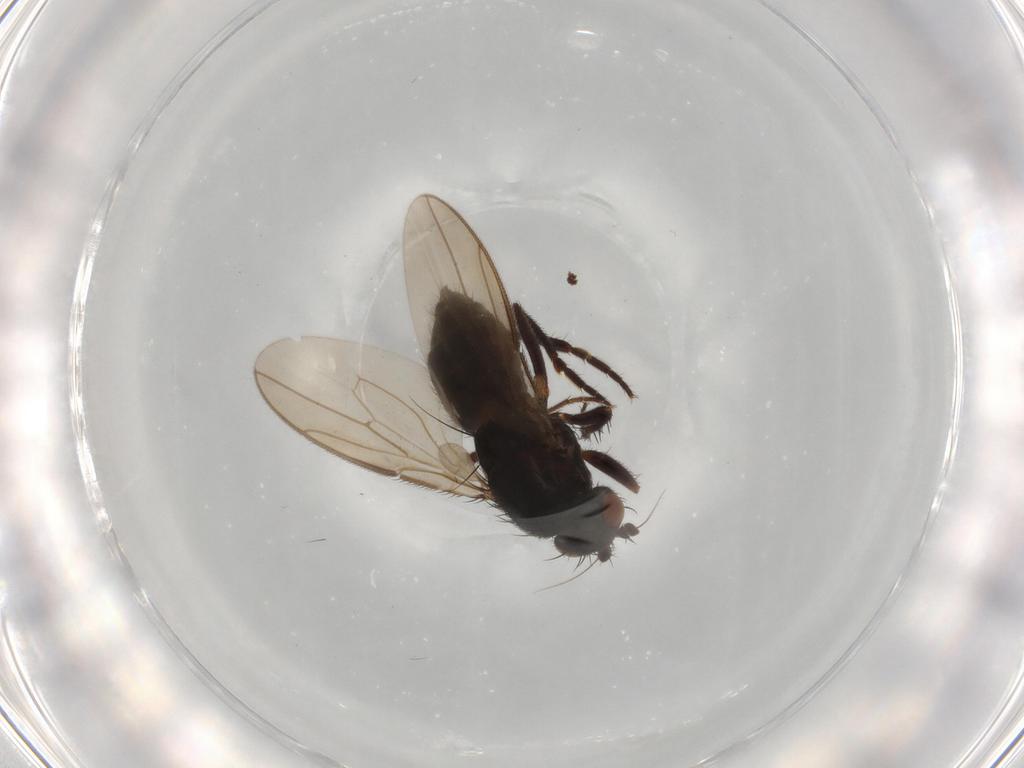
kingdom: Animalia
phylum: Arthropoda
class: Insecta
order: Diptera
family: Sphaeroceridae
